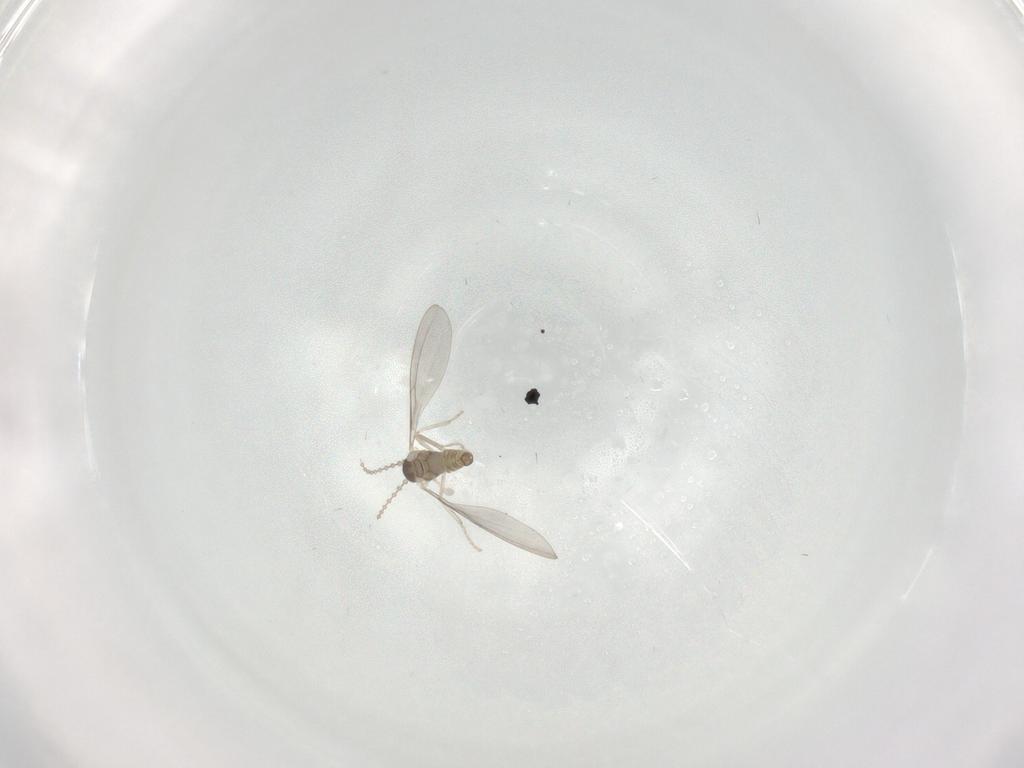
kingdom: Animalia
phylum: Arthropoda
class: Insecta
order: Diptera
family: Cecidomyiidae
